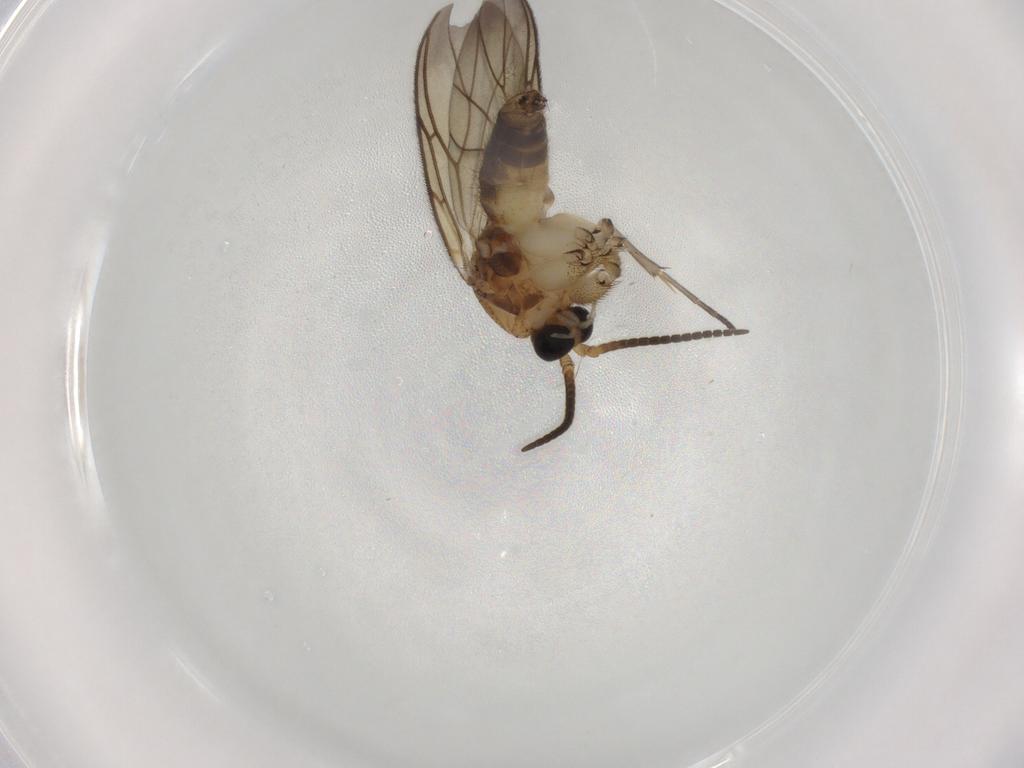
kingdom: Animalia
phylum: Arthropoda
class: Insecta
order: Diptera
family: Mycetophilidae
